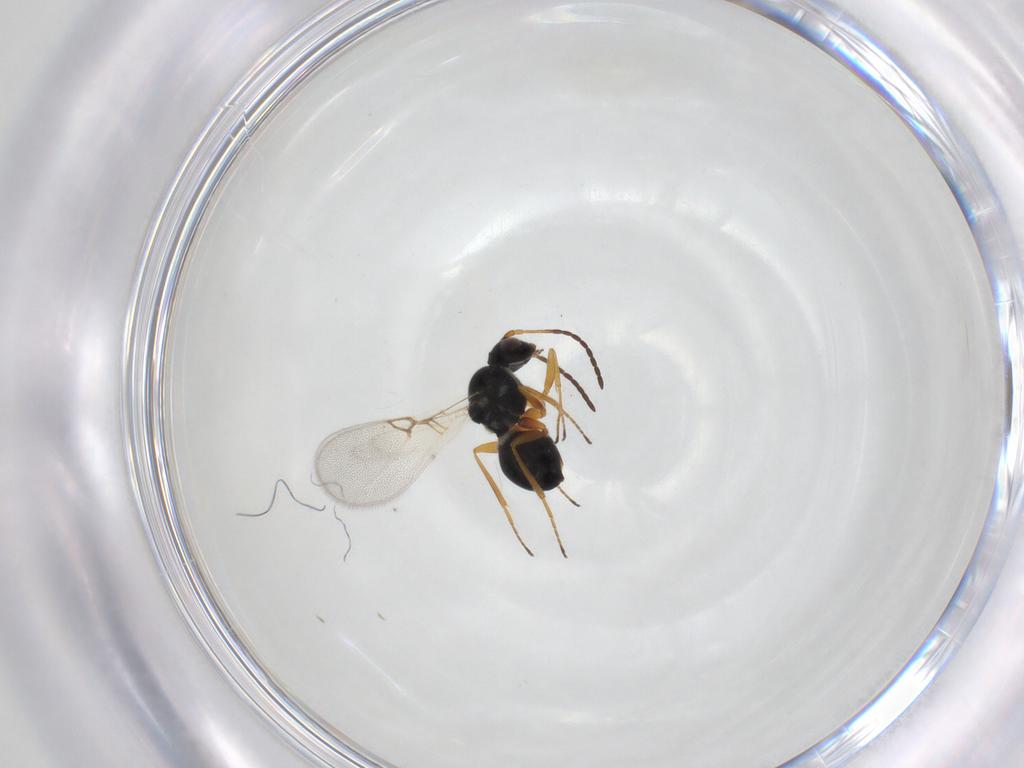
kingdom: Animalia
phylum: Arthropoda
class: Insecta
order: Hymenoptera
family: Figitidae
